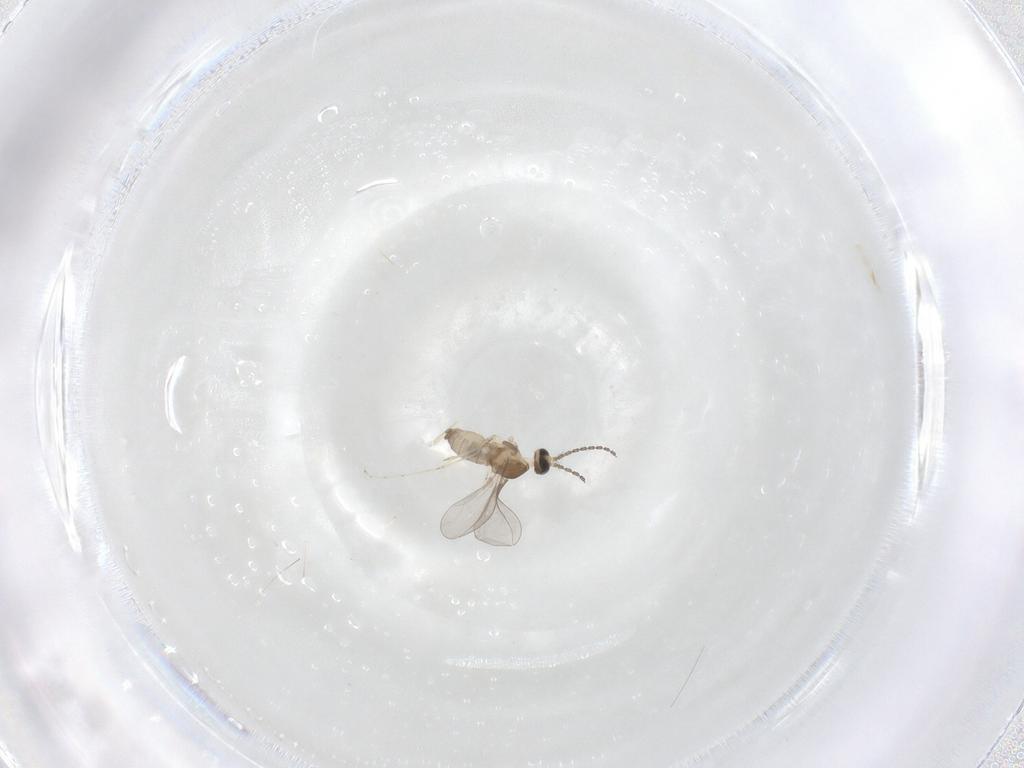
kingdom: Animalia
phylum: Arthropoda
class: Insecta
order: Diptera
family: Cecidomyiidae
